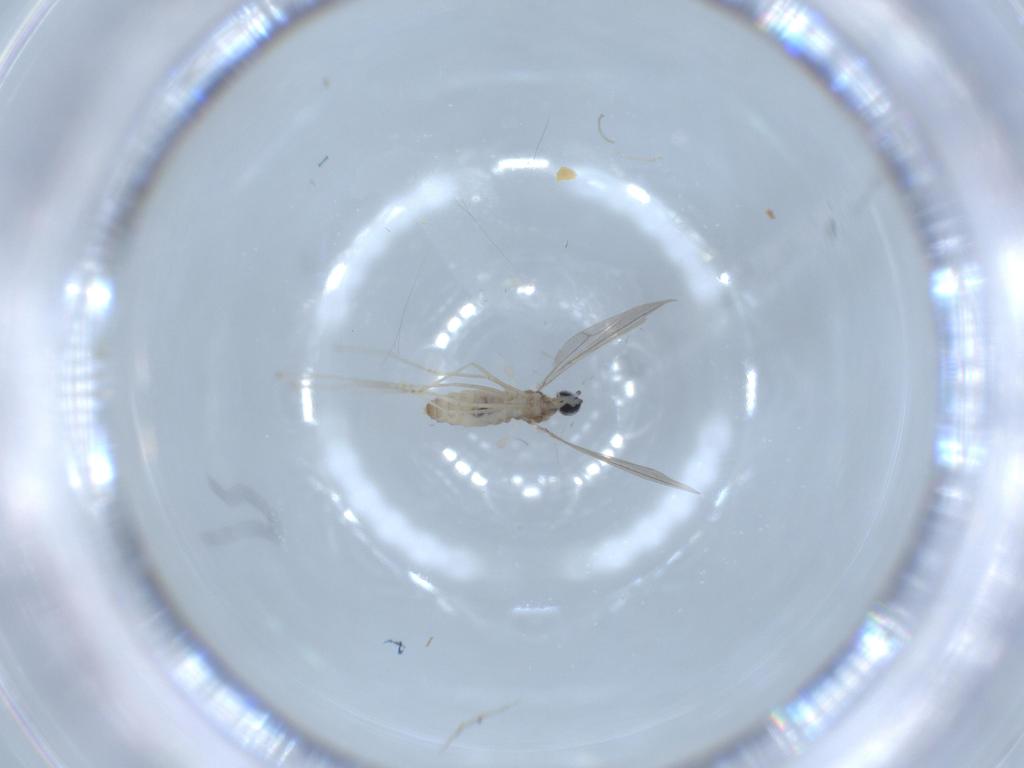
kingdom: Animalia
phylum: Arthropoda
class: Insecta
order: Diptera
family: Cecidomyiidae
